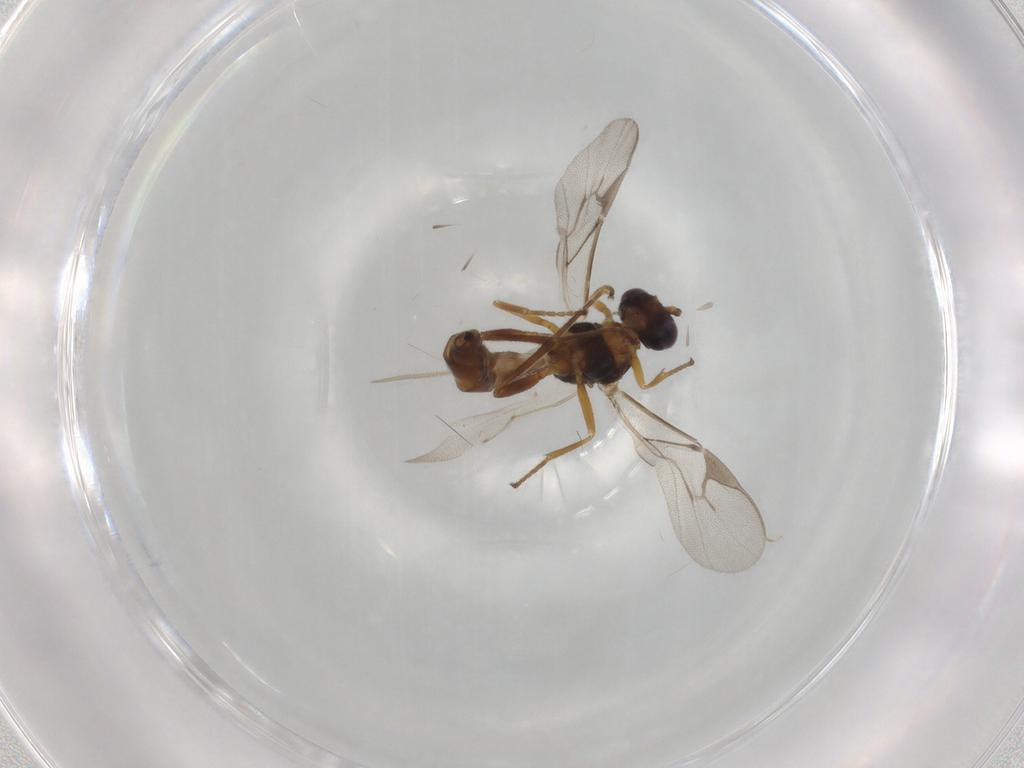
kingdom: Animalia
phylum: Arthropoda
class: Insecta
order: Hymenoptera
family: Braconidae
